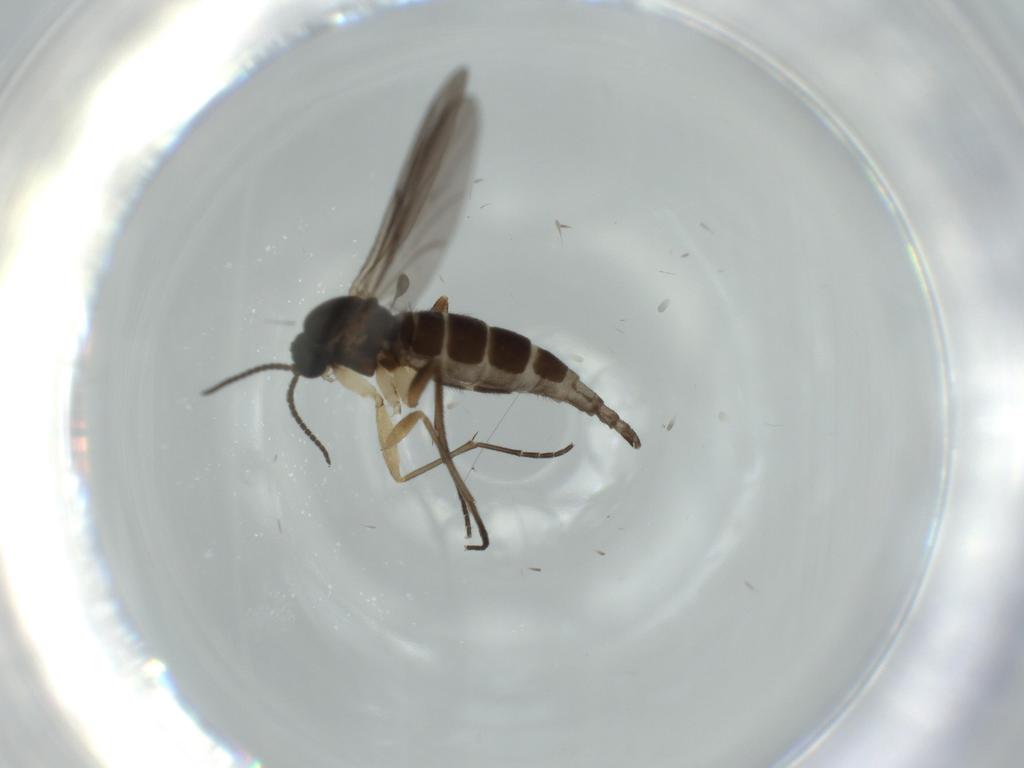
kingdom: Animalia
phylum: Arthropoda
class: Insecta
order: Diptera
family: Sciaridae
